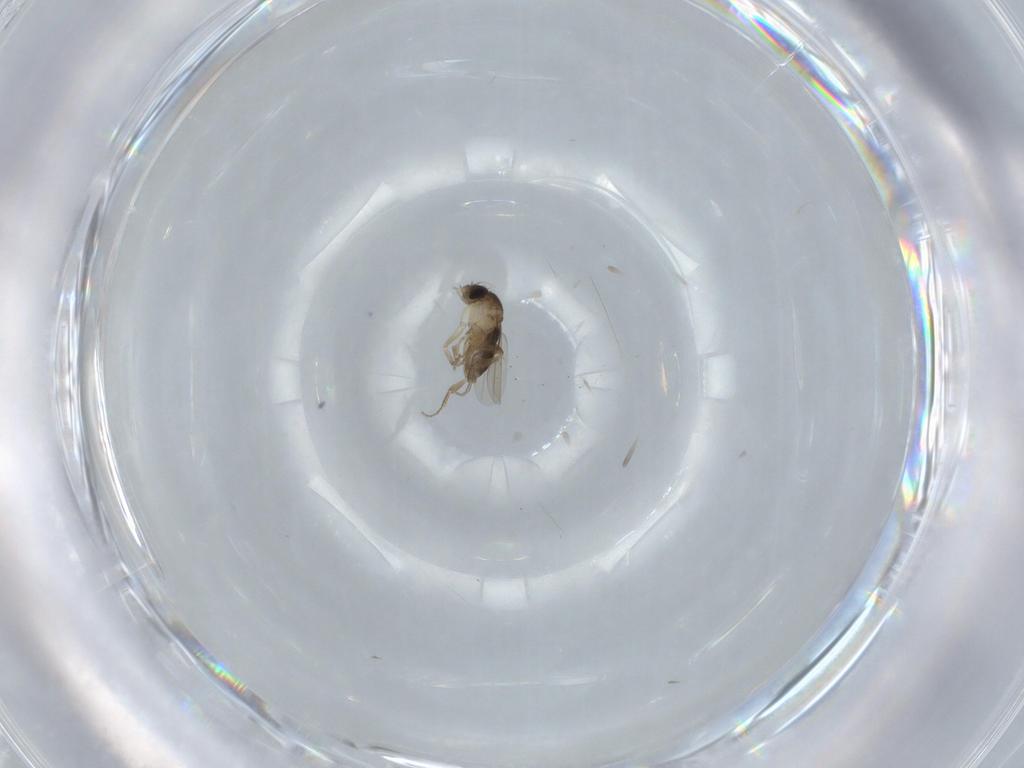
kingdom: Animalia
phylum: Arthropoda
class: Insecta
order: Diptera
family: Phoridae
